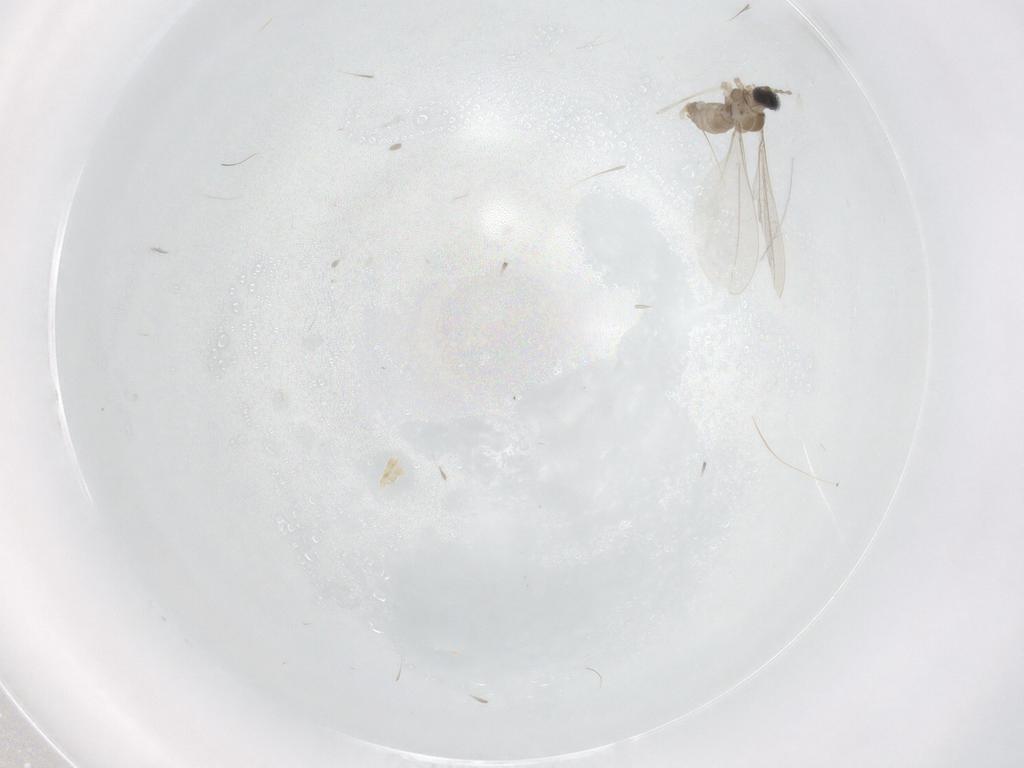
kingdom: Animalia
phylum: Arthropoda
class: Insecta
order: Diptera
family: Cecidomyiidae
